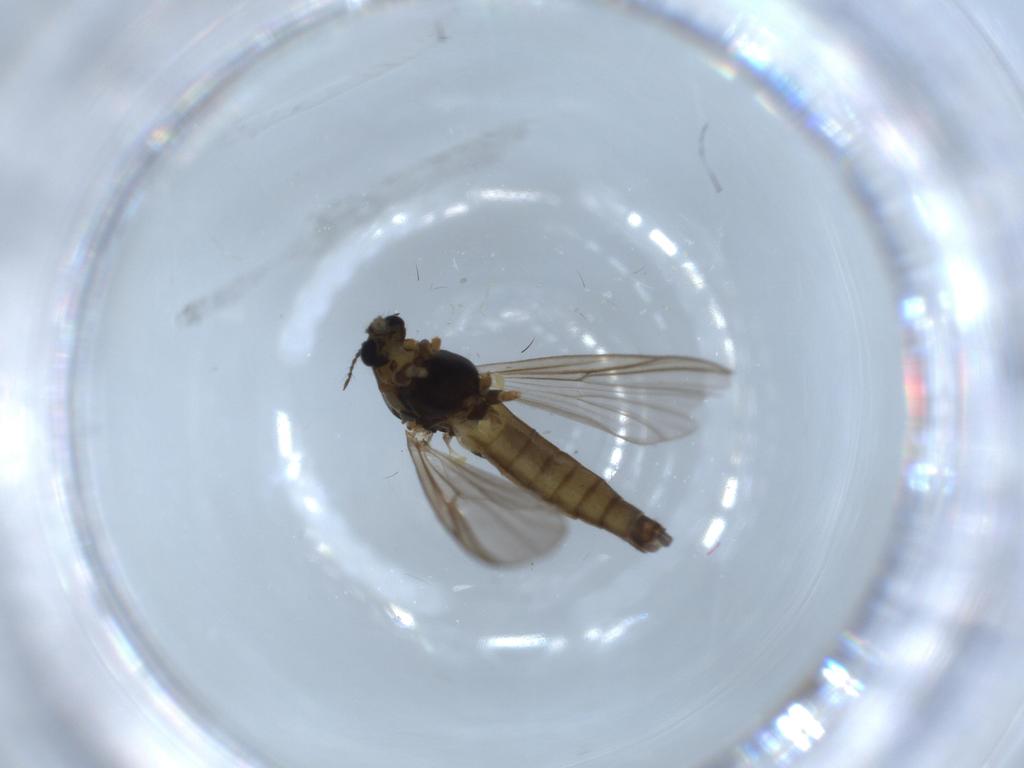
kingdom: Animalia
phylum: Arthropoda
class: Insecta
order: Diptera
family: Chironomidae
